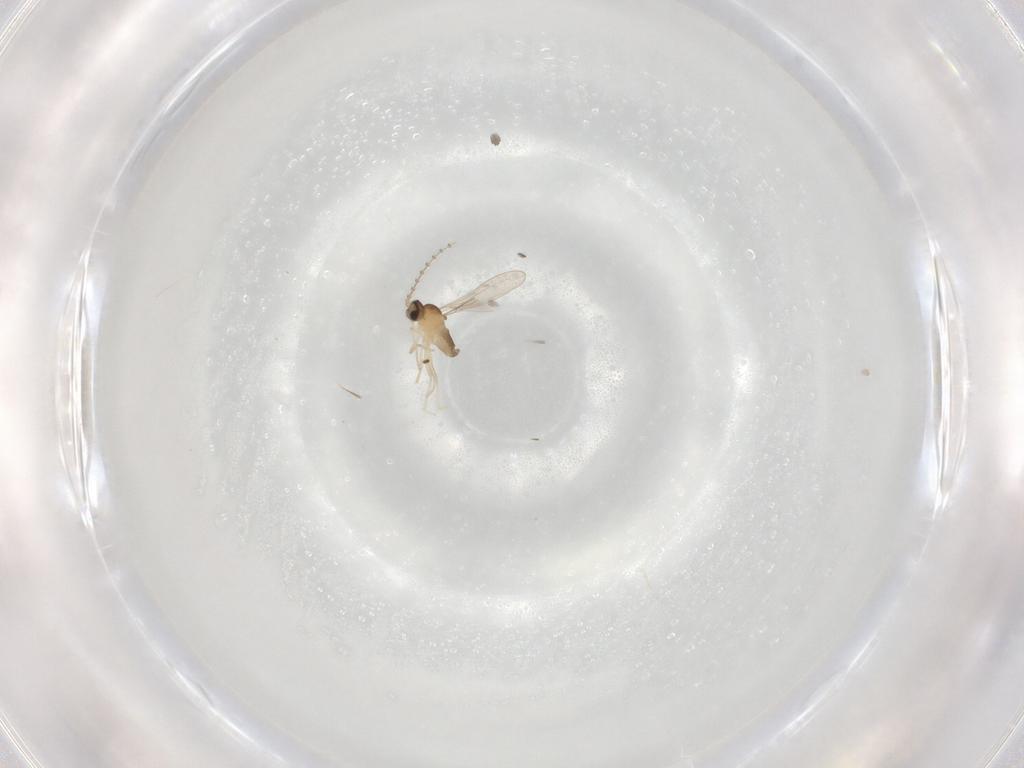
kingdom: Animalia
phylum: Arthropoda
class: Insecta
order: Diptera
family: Cecidomyiidae
